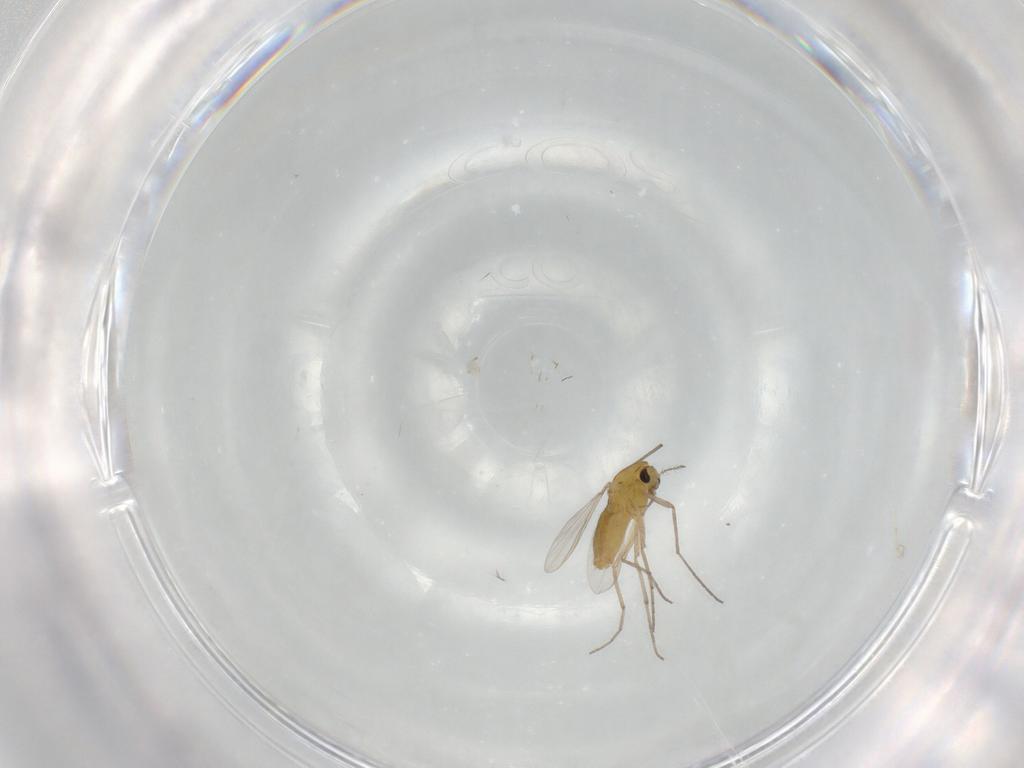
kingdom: Animalia
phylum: Arthropoda
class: Insecta
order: Diptera
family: Chironomidae
